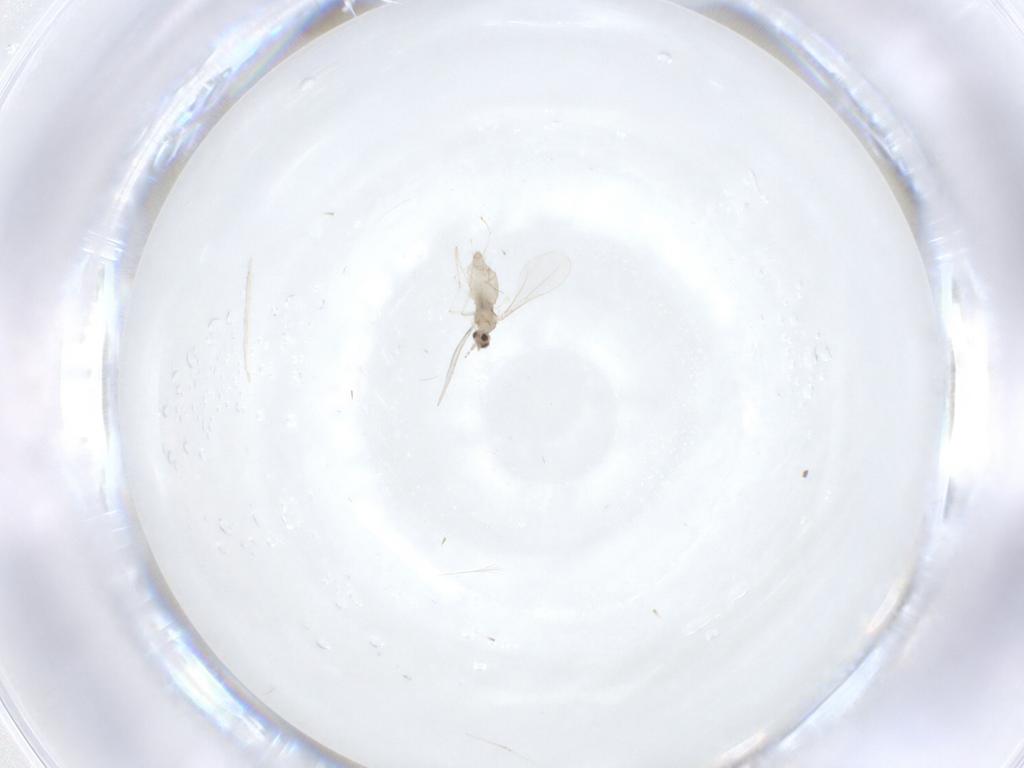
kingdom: Animalia
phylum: Arthropoda
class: Insecta
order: Diptera
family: Cecidomyiidae
